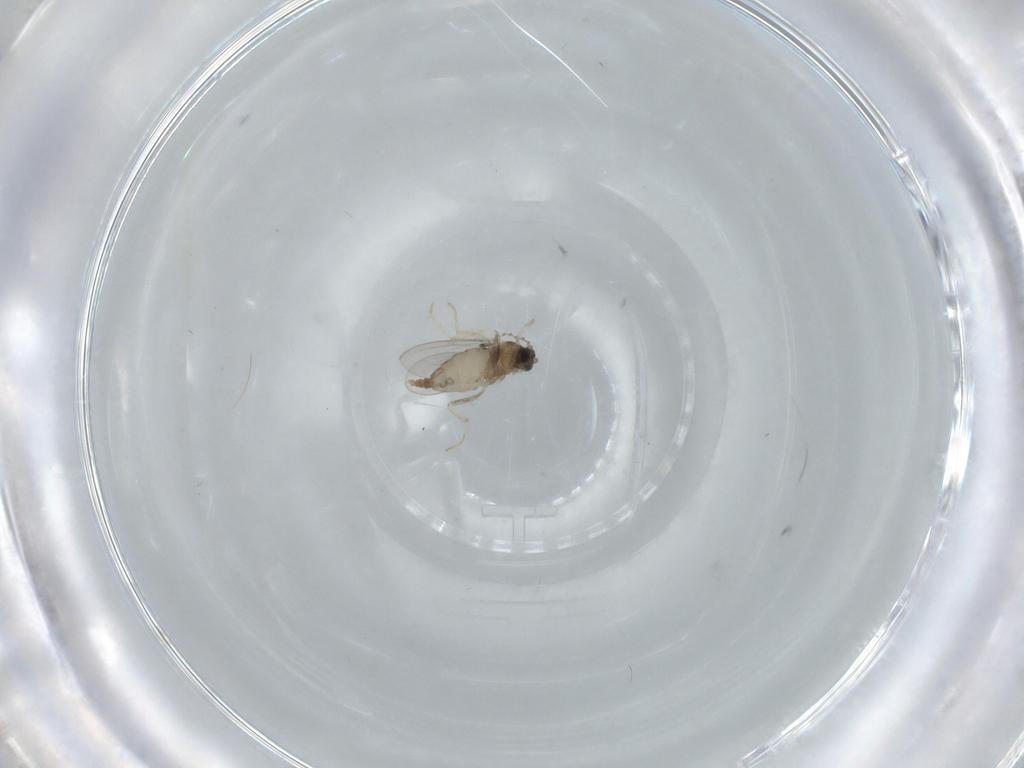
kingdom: Animalia
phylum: Arthropoda
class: Insecta
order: Diptera
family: Cecidomyiidae
